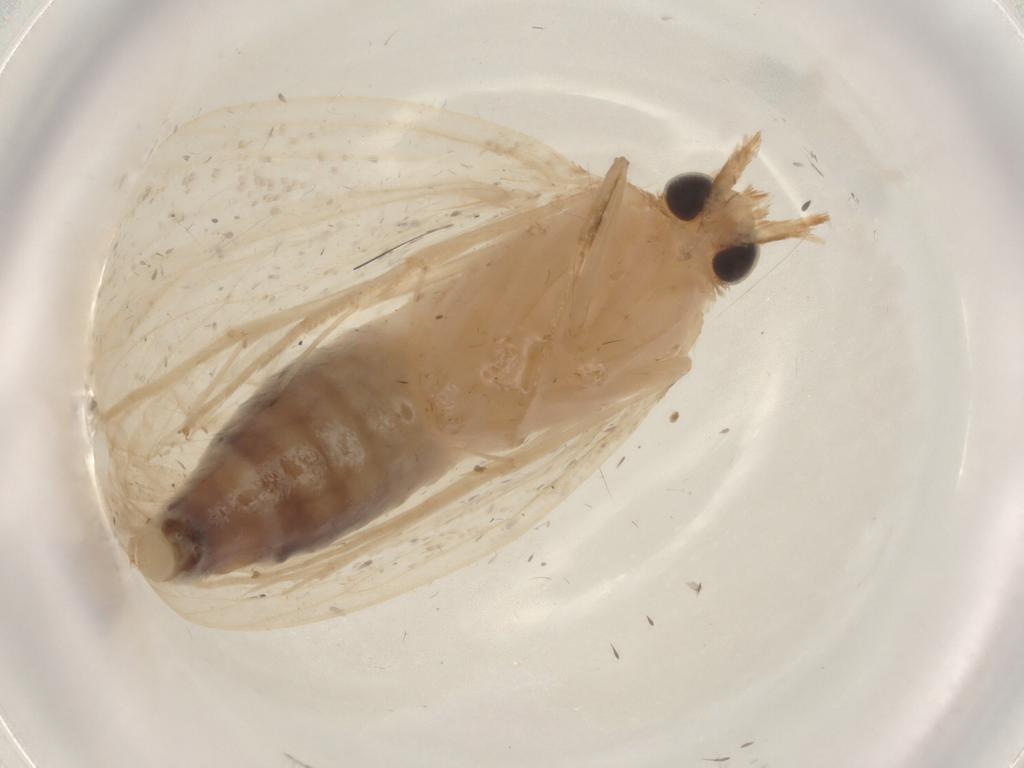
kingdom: Animalia
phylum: Arthropoda
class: Insecta
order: Lepidoptera
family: Crambidae
